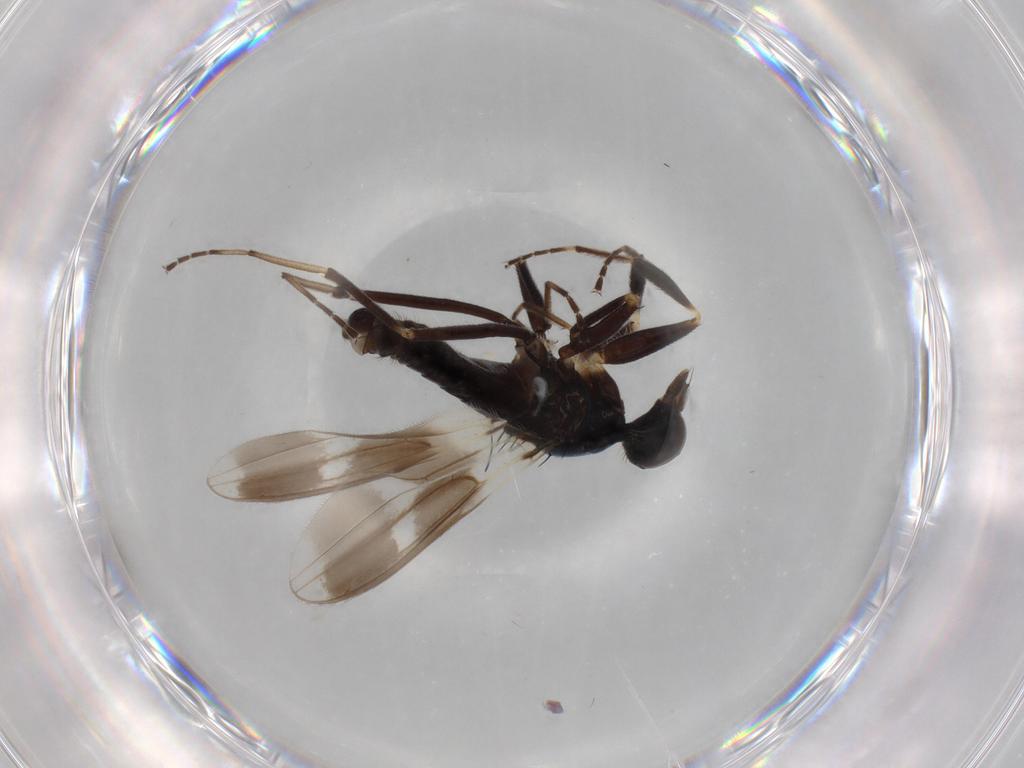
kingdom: Animalia
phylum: Arthropoda
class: Insecta
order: Diptera
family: Hybotidae
